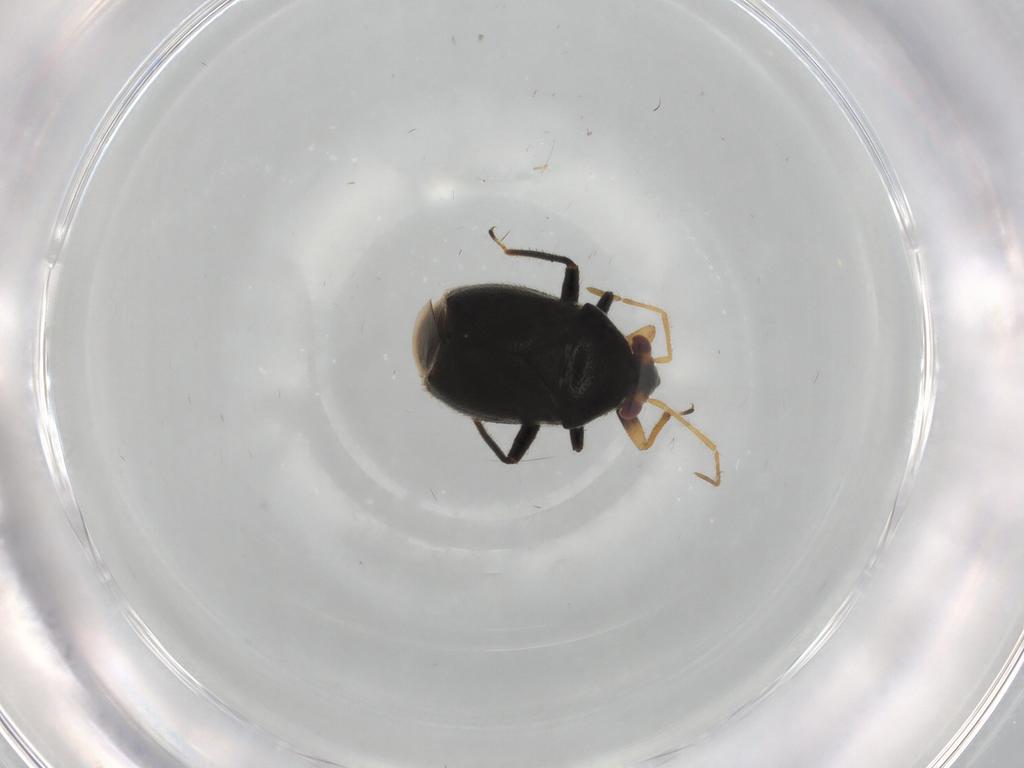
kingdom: Animalia
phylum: Arthropoda
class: Insecta
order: Hemiptera
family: Miridae
